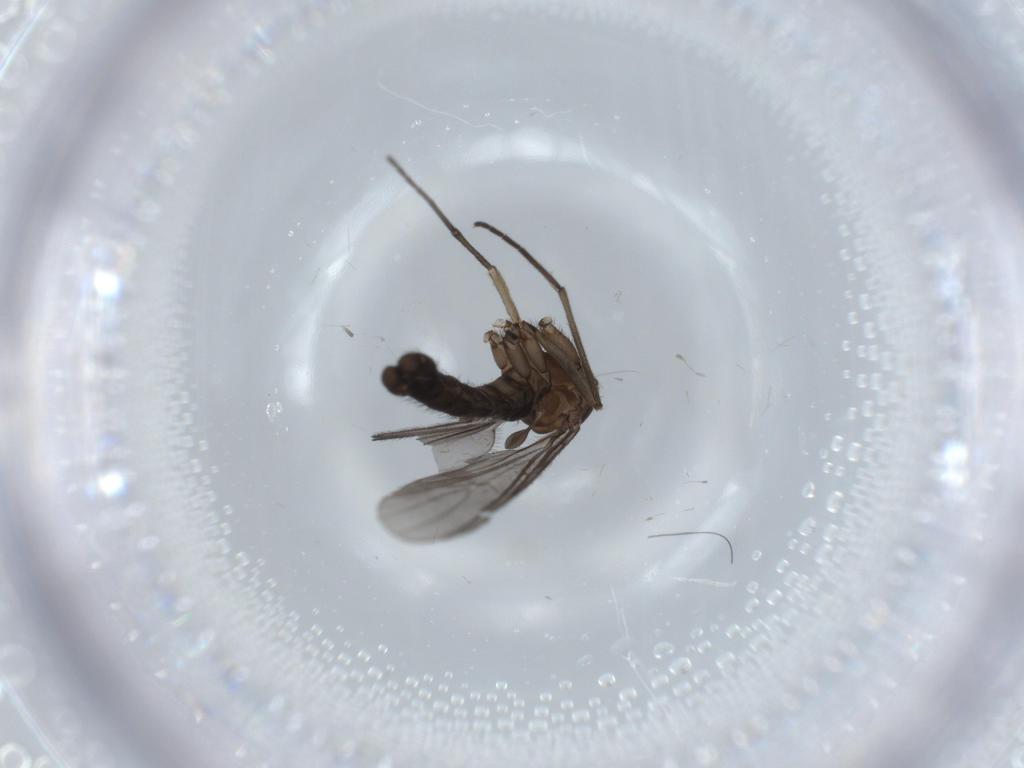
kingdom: Animalia
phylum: Arthropoda
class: Insecta
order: Diptera
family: Sciaridae
